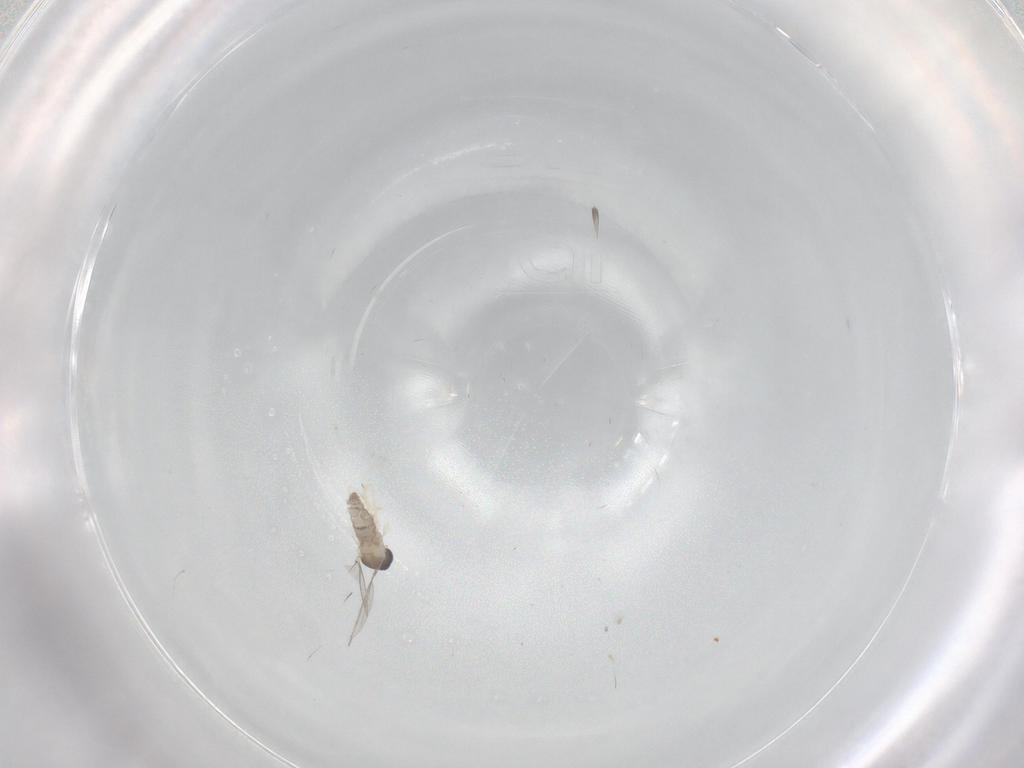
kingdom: Animalia
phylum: Arthropoda
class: Insecta
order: Diptera
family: Cecidomyiidae
